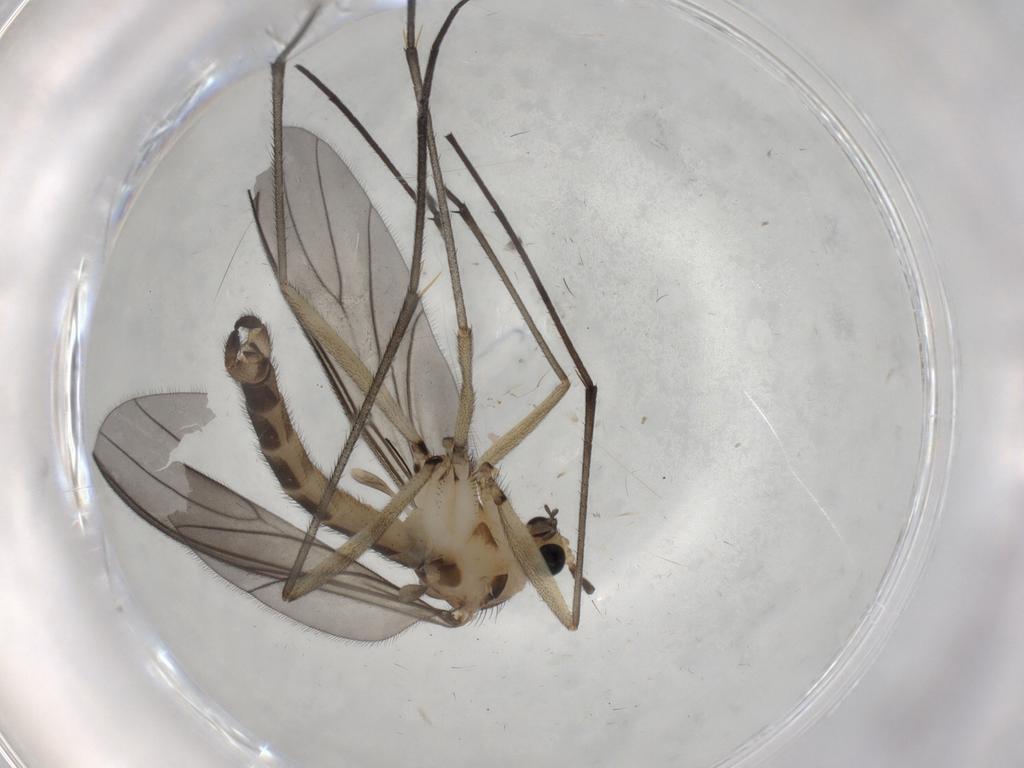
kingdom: Animalia
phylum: Arthropoda
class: Insecta
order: Diptera
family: Sciaridae
